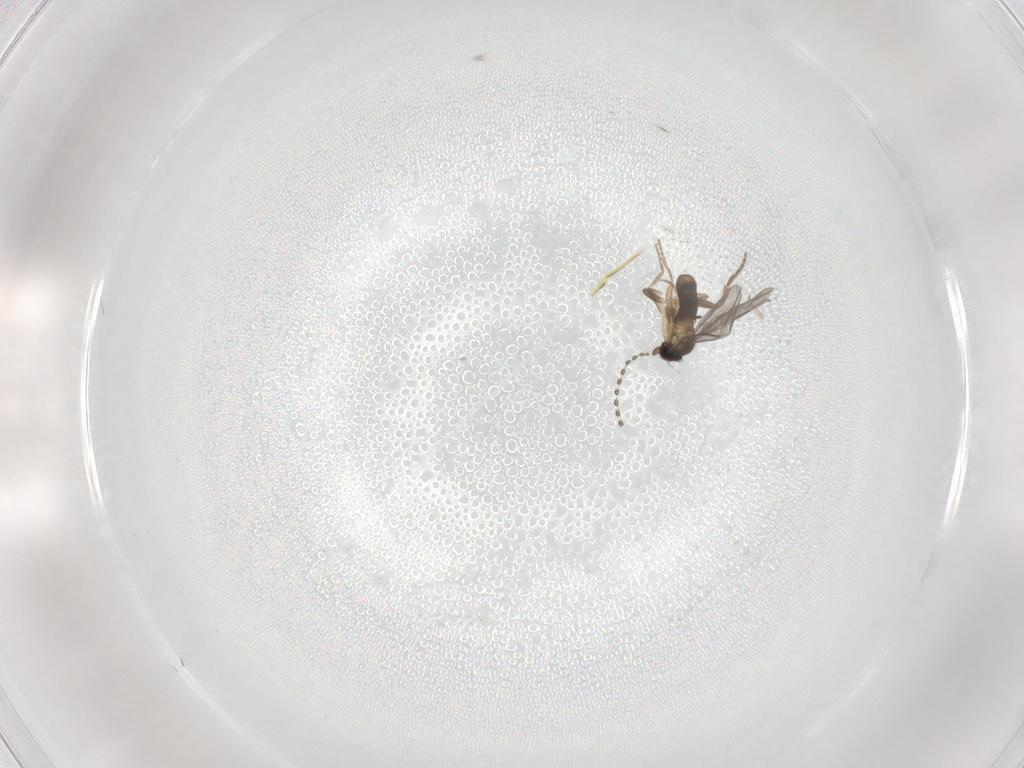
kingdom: Animalia
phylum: Arthropoda
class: Insecta
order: Diptera
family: Cecidomyiidae
